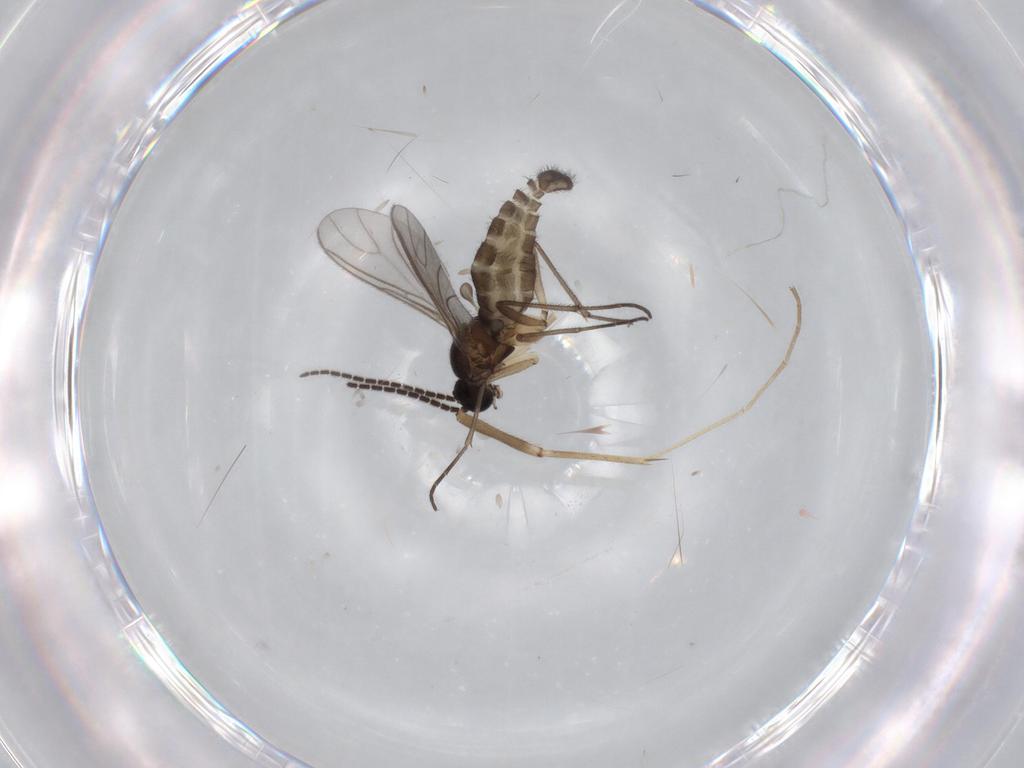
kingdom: Animalia
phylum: Arthropoda
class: Insecta
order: Diptera
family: Sciaridae
